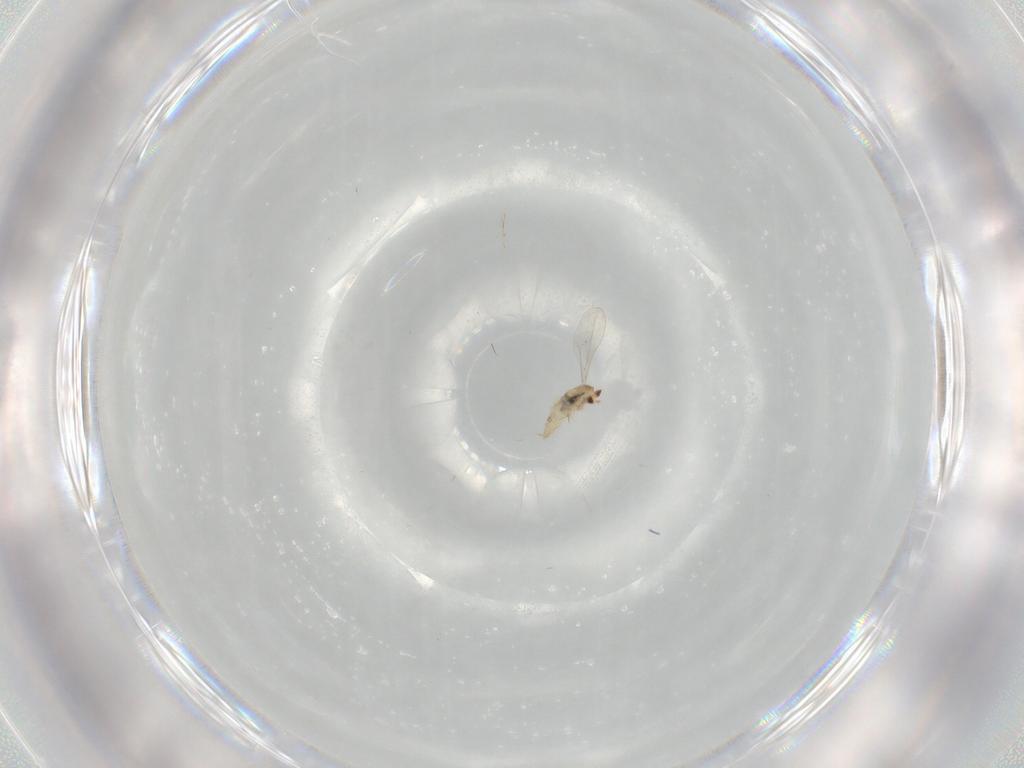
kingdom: Animalia
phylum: Arthropoda
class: Insecta
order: Diptera
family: Cecidomyiidae
